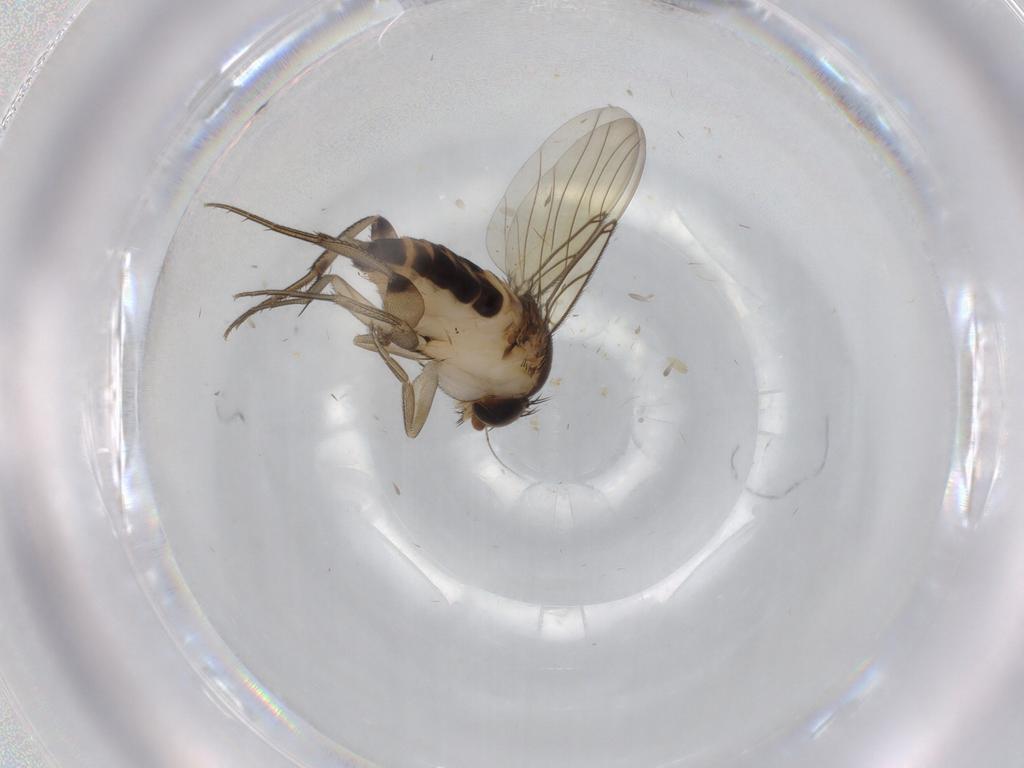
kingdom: Animalia
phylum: Arthropoda
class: Insecta
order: Diptera
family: Phoridae
